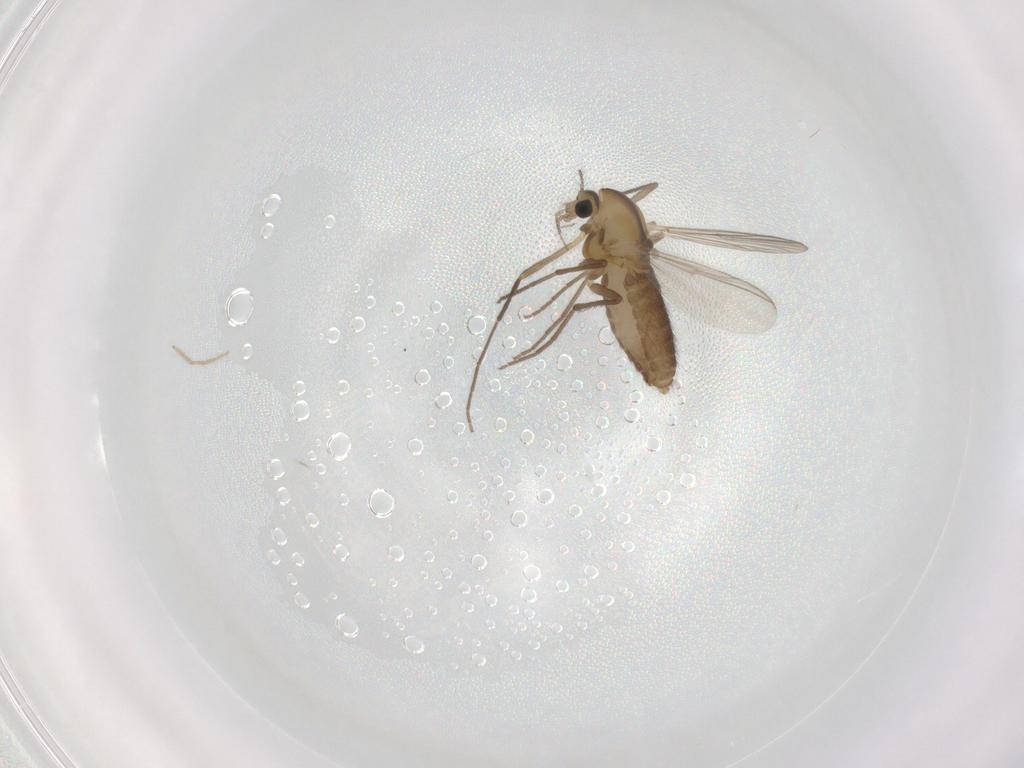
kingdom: Animalia
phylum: Arthropoda
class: Insecta
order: Diptera
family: Chironomidae
